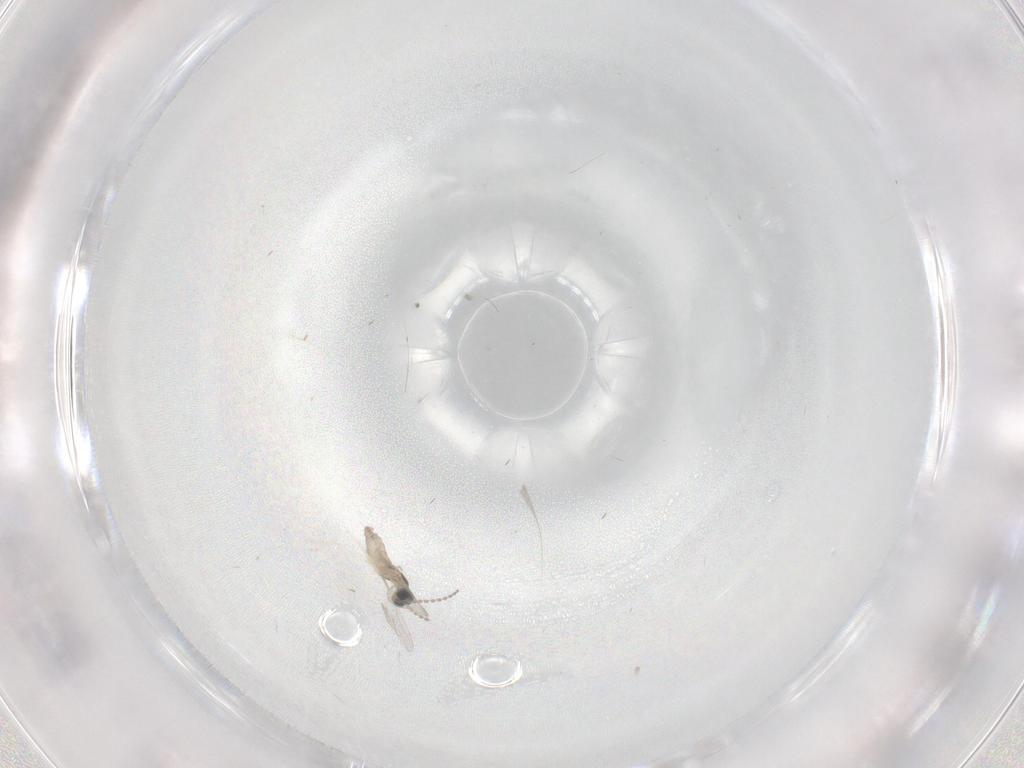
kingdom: Animalia
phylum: Arthropoda
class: Insecta
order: Diptera
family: Cecidomyiidae
